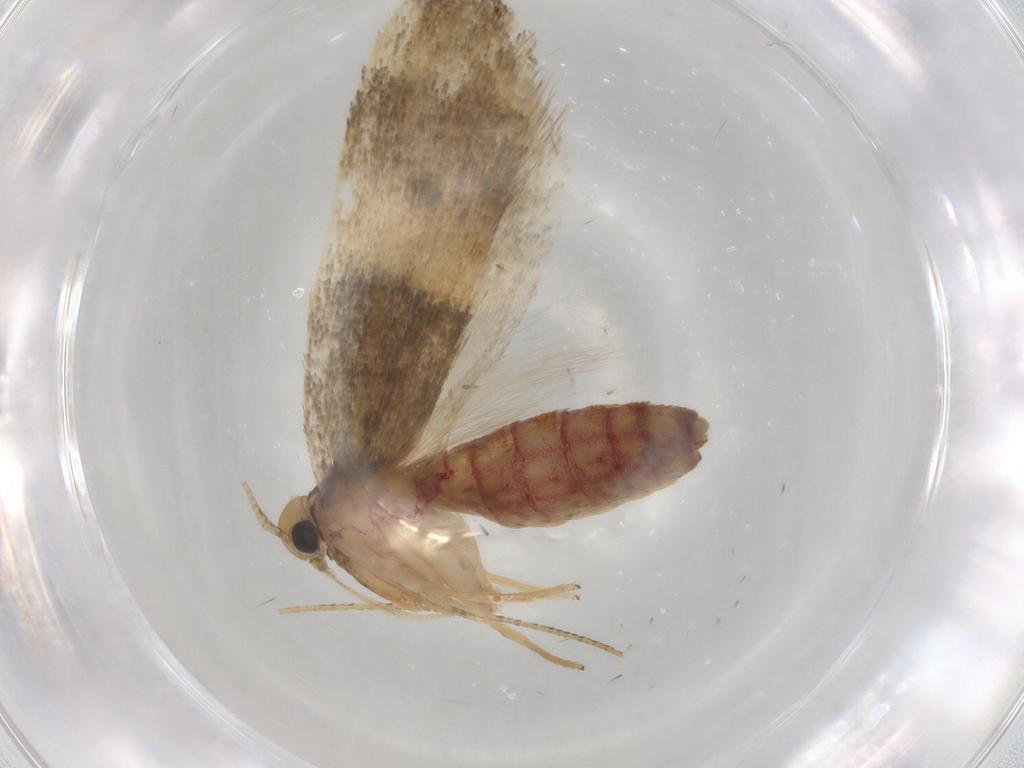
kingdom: Animalia
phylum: Arthropoda
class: Insecta
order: Lepidoptera
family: Lecithoceridae
